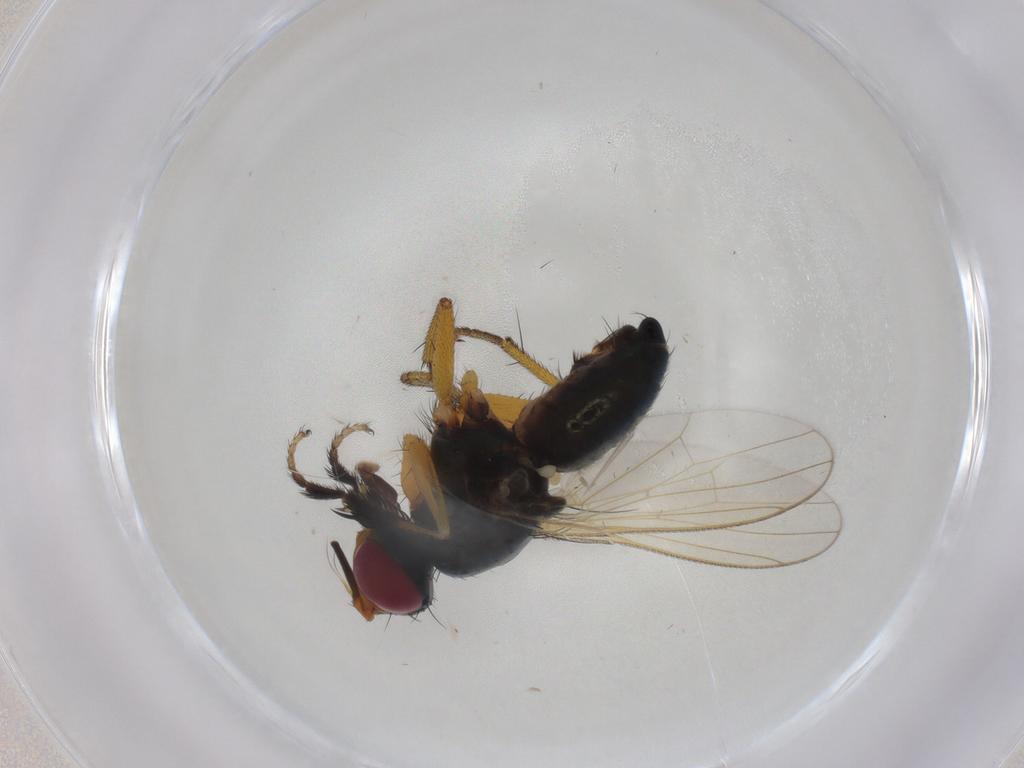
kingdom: Animalia
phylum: Arthropoda
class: Insecta
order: Diptera
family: Muscidae
